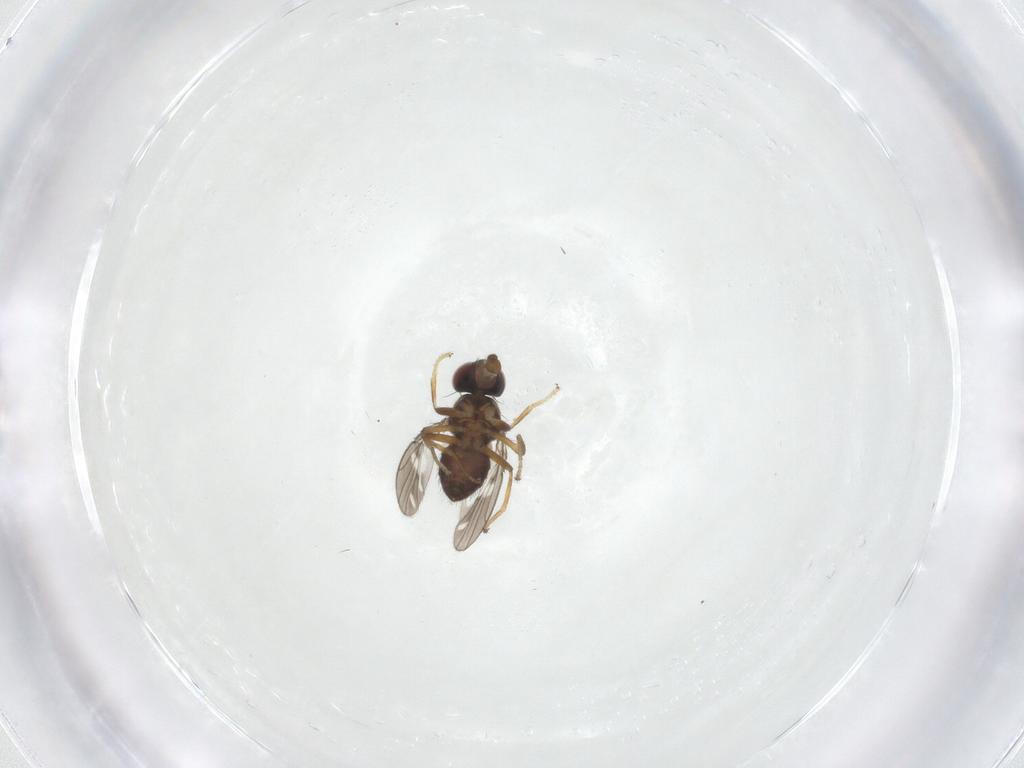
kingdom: Animalia
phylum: Arthropoda
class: Insecta
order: Diptera
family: Ephydridae
